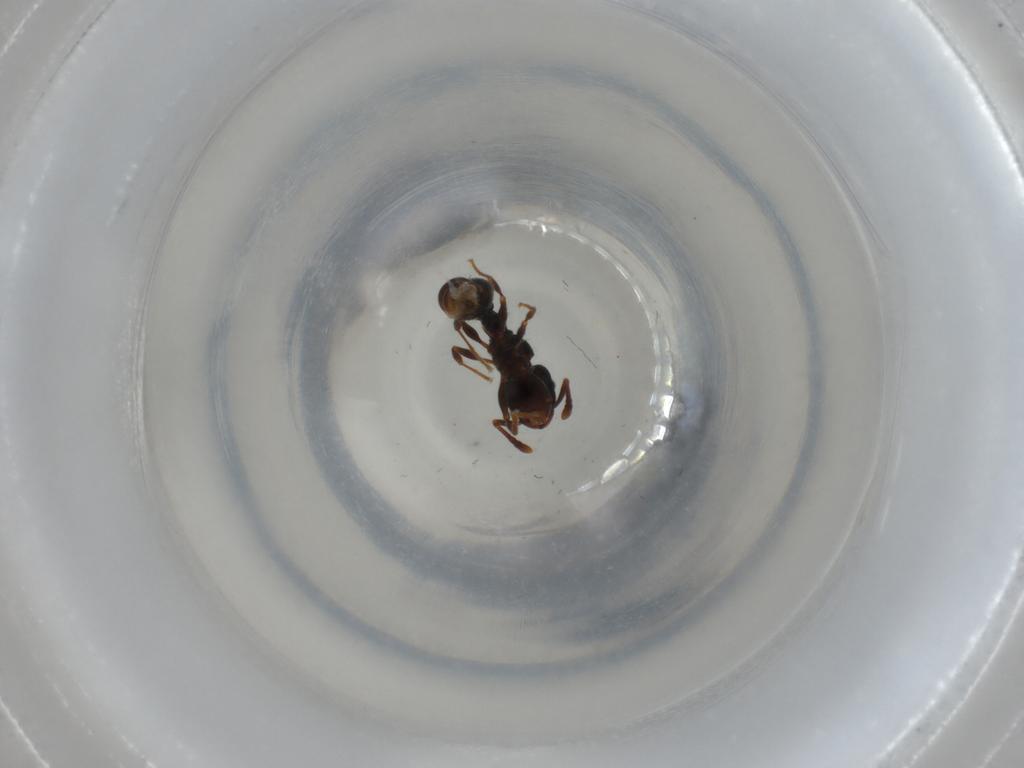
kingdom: Animalia
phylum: Arthropoda
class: Insecta
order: Hymenoptera
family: Formicidae
